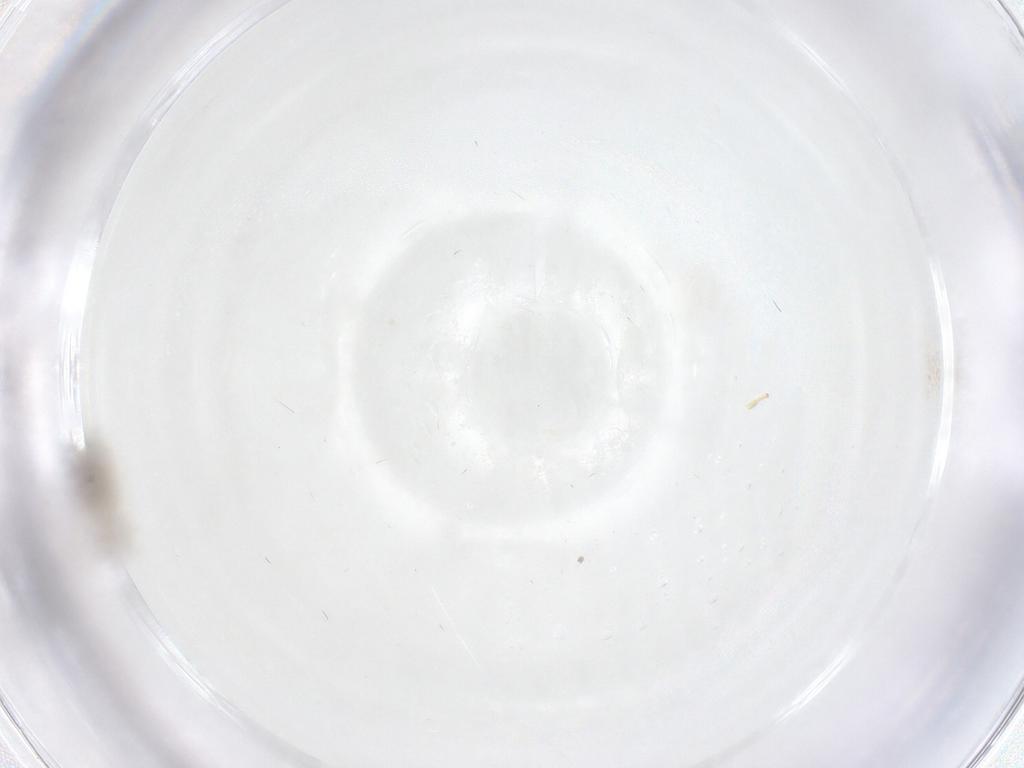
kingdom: Animalia
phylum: Arthropoda
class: Insecta
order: Diptera
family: Cecidomyiidae
